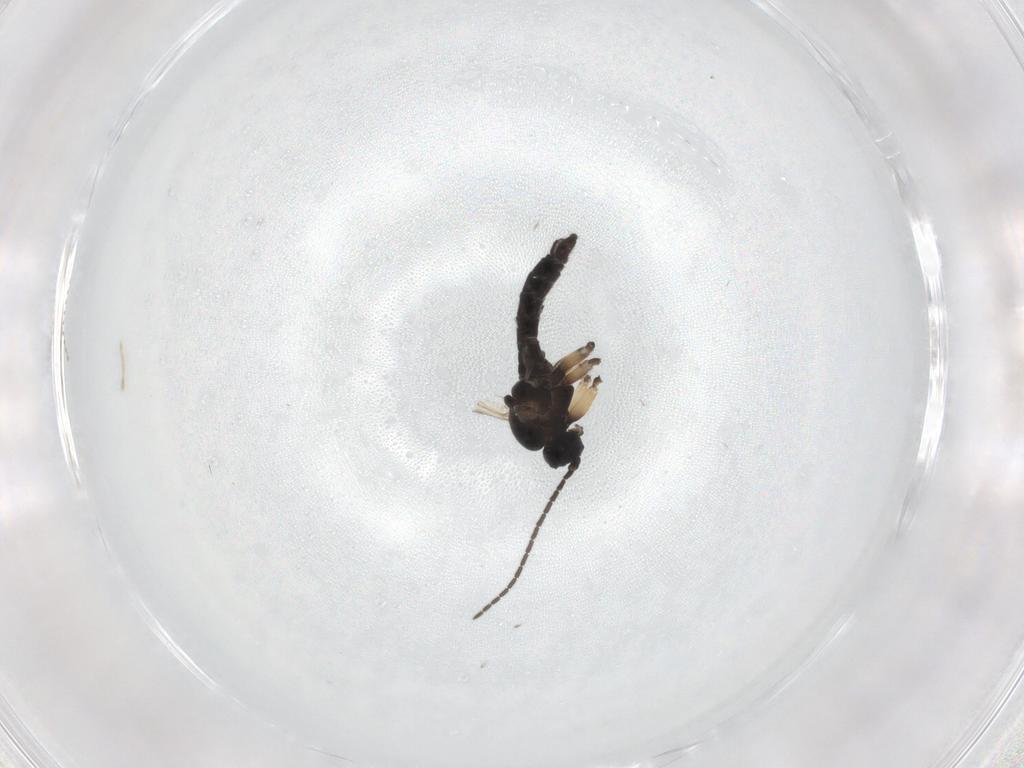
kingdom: Animalia
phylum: Arthropoda
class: Insecta
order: Diptera
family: Sciaridae
